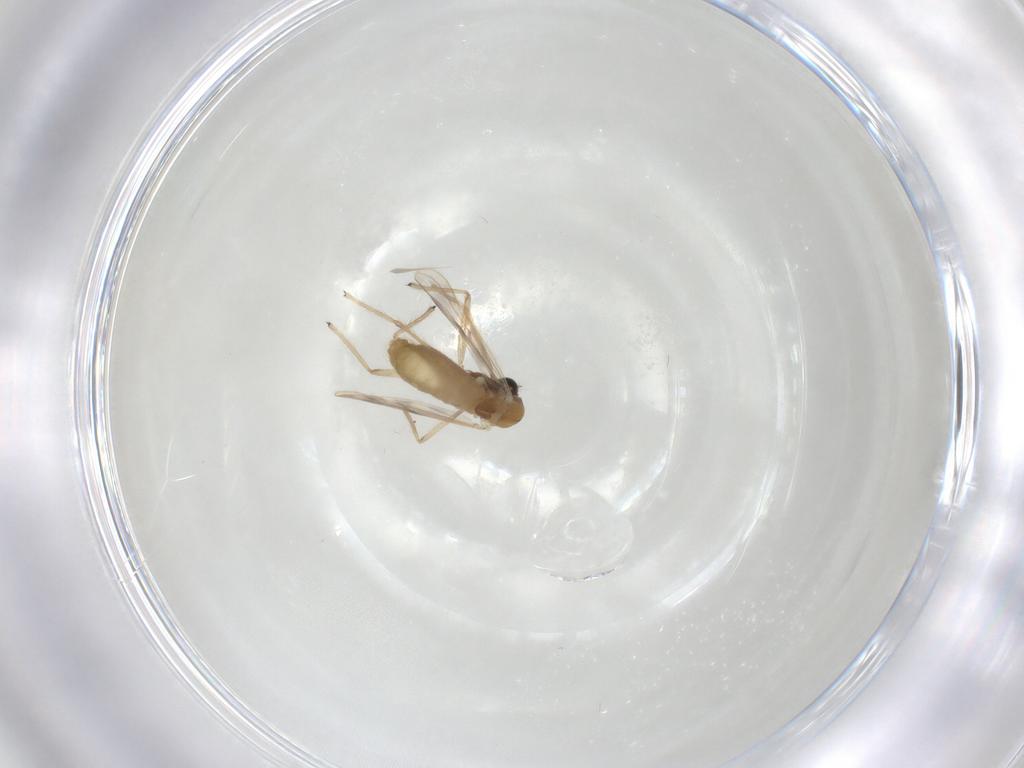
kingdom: Animalia
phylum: Arthropoda
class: Insecta
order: Diptera
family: Chironomidae
